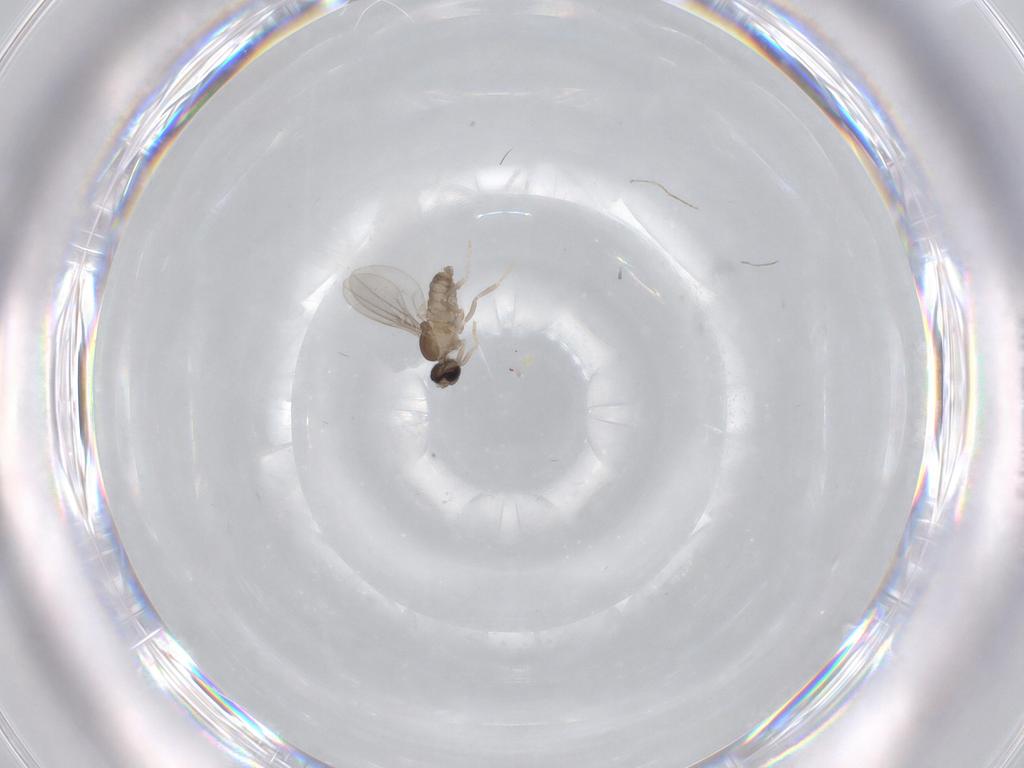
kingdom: Animalia
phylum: Arthropoda
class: Insecta
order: Diptera
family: Cecidomyiidae
